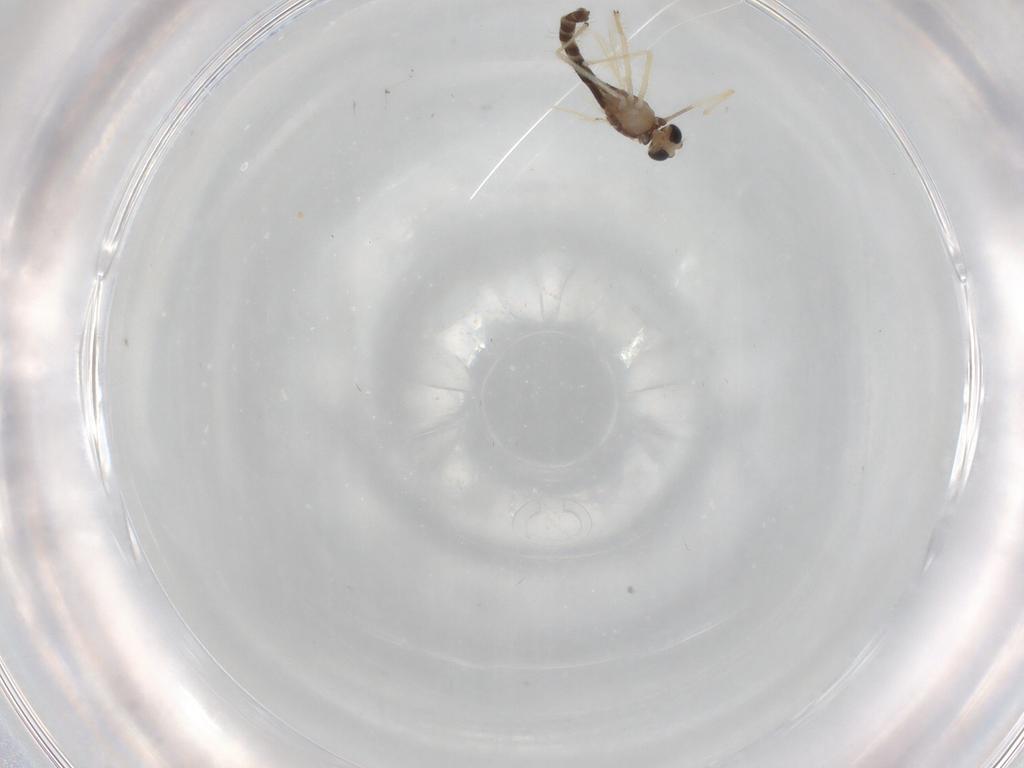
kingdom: Animalia
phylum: Arthropoda
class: Insecta
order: Diptera
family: Chironomidae
